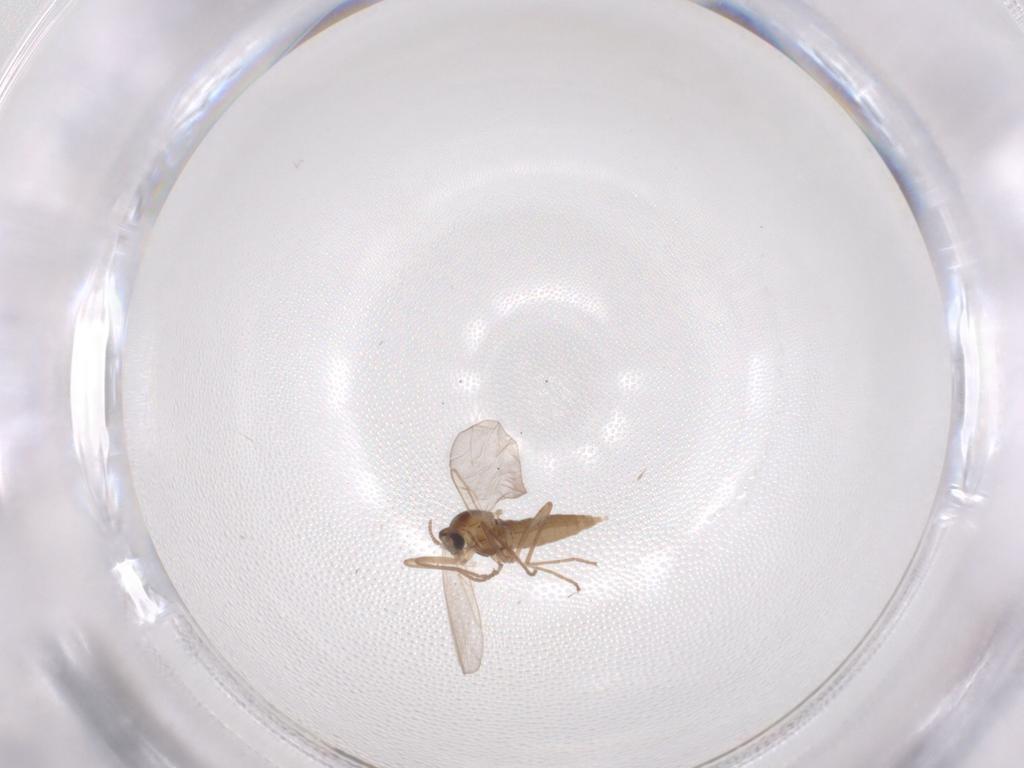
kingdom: Animalia
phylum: Arthropoda
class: Insecta
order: Diptera
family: Cecidomyiidae
